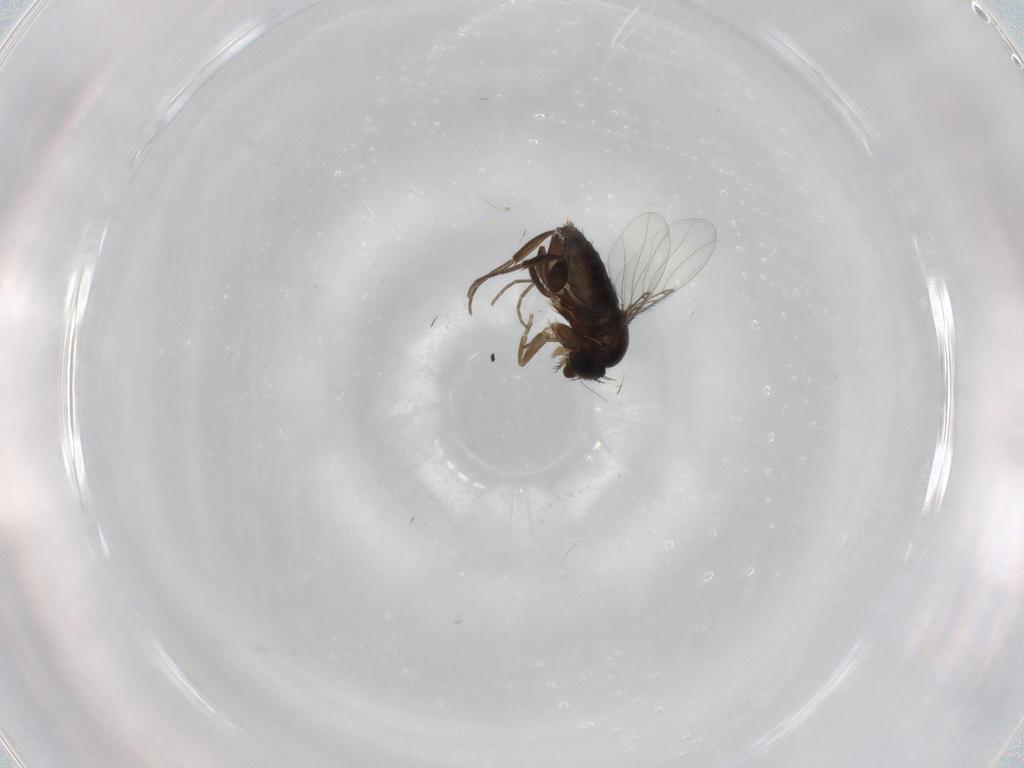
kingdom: Animalia
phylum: Arthropoda
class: Insecta
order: Diptera
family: Phoridae
